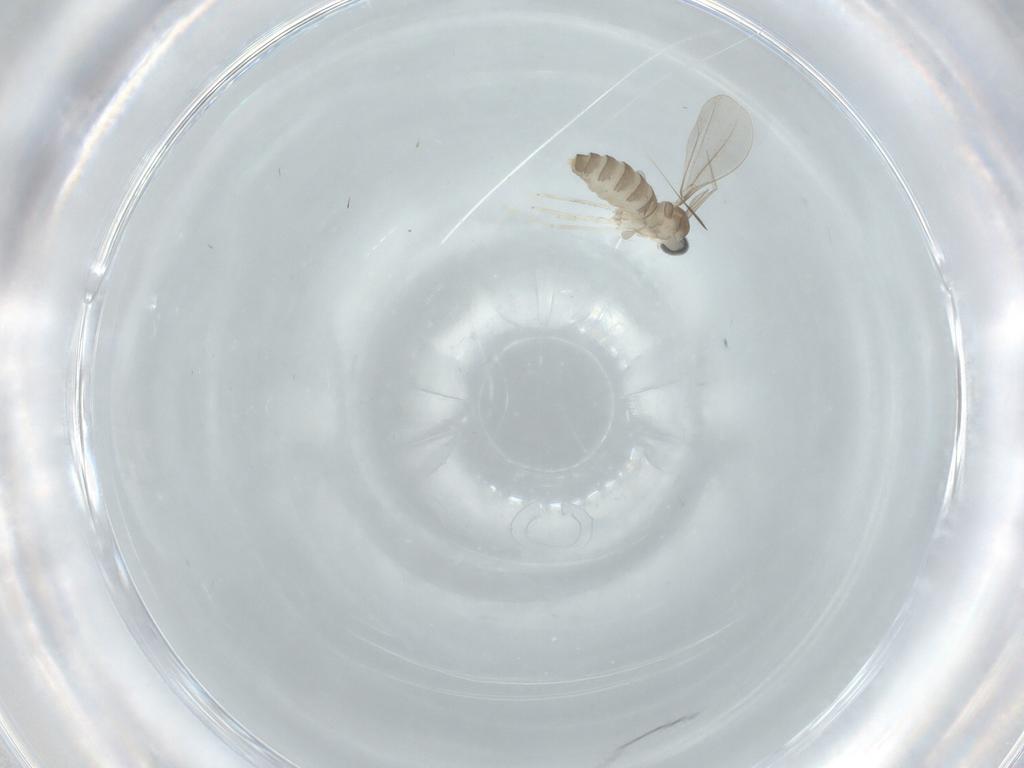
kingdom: Animalia
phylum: Arthropoda
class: Insecta
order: Diptera
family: Cecidomyiidae
